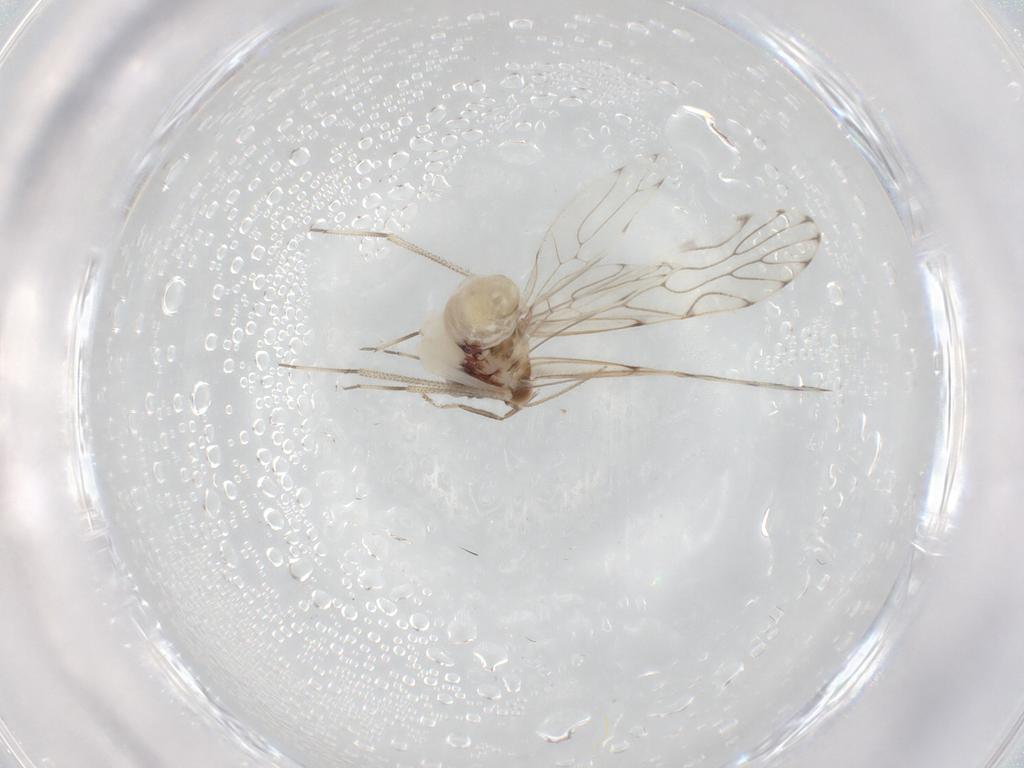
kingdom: Animalia
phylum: Arthropoda
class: Insecta
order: Psocodea
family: Epipsocidae
